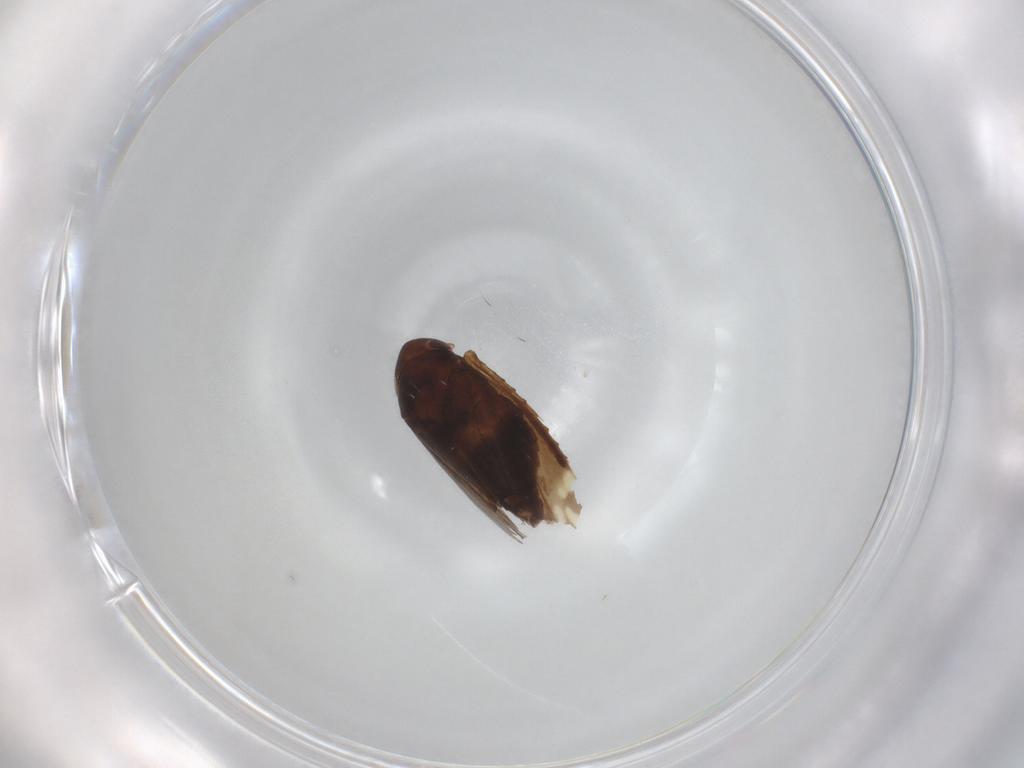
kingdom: Animalia
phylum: Arthropoda
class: Insecta
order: Hemiptera
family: Cicadellidae
